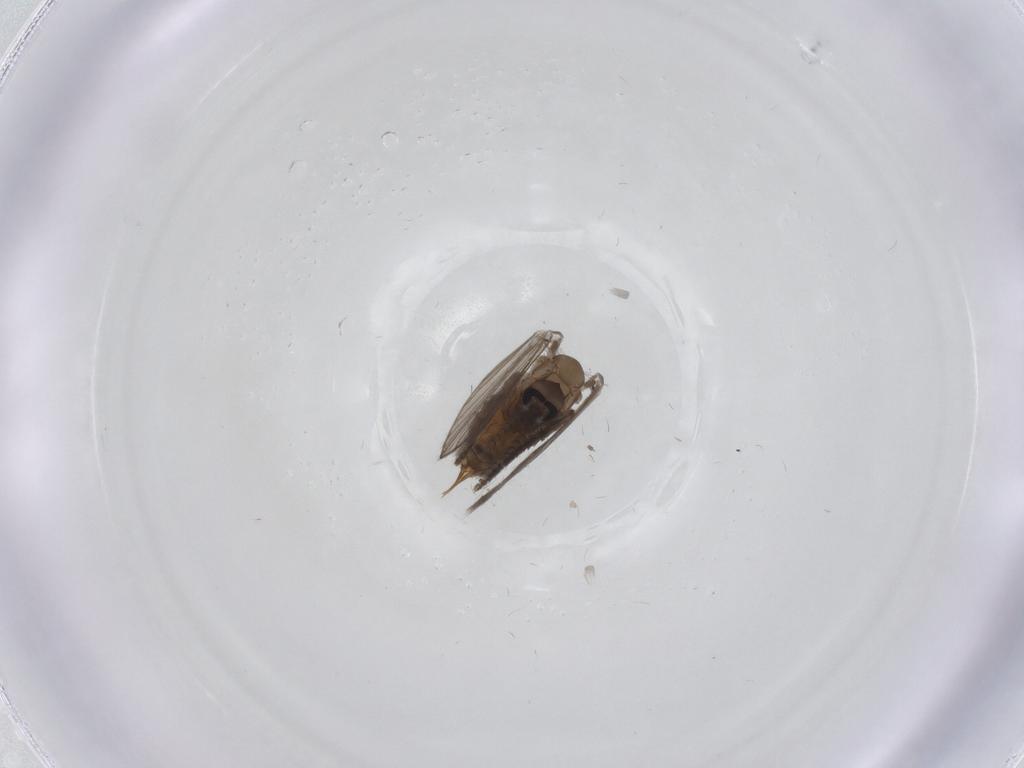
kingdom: Animalia
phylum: Arthropoda
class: Insecta
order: Diptera
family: Psychodidae
